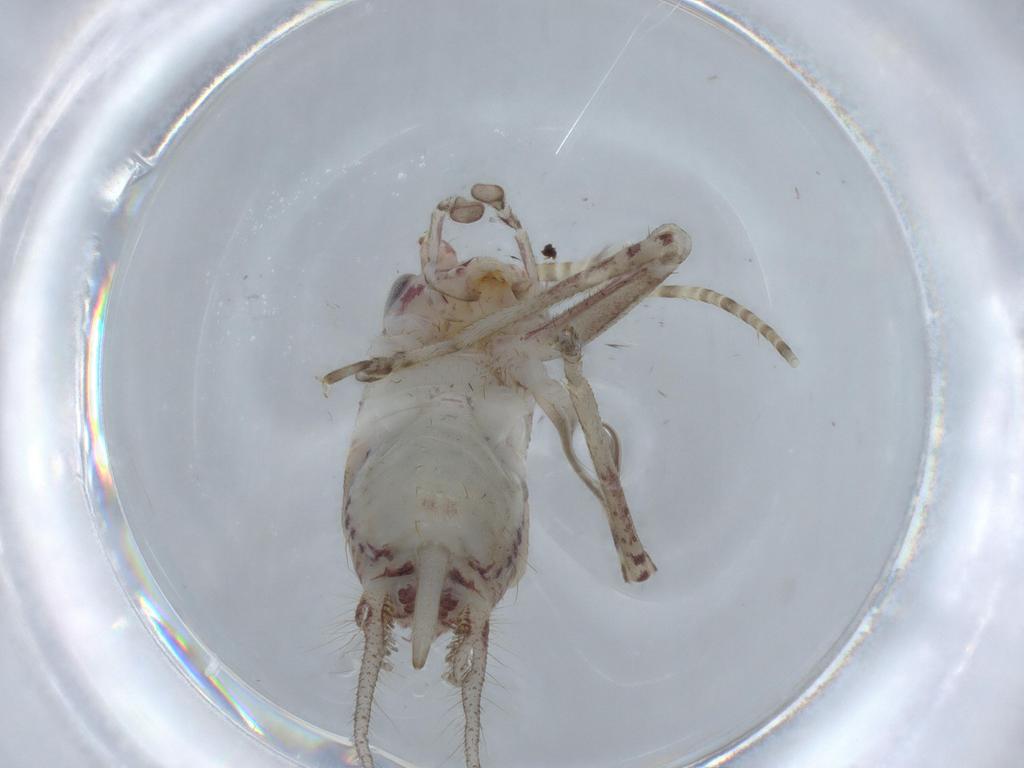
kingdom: Animalia
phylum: Arthropoda
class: Insecta
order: Orthoptera
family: Trigonidiidae
